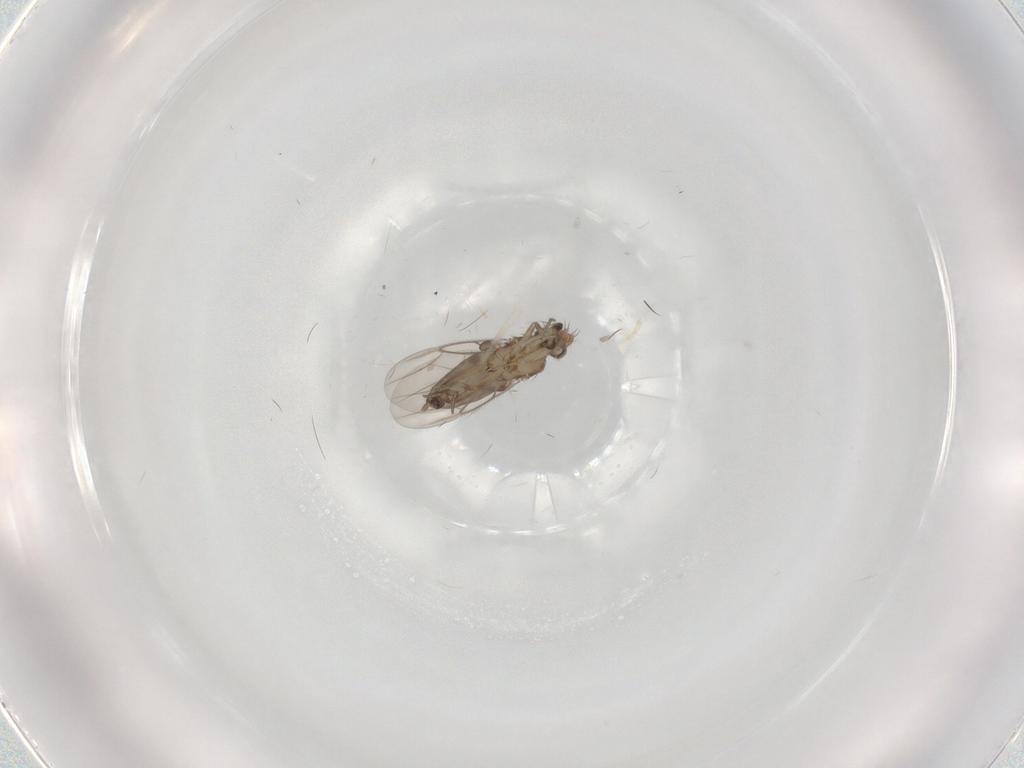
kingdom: Animalia
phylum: Arthropoda
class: Insecta
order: Diptera
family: Phoridae
